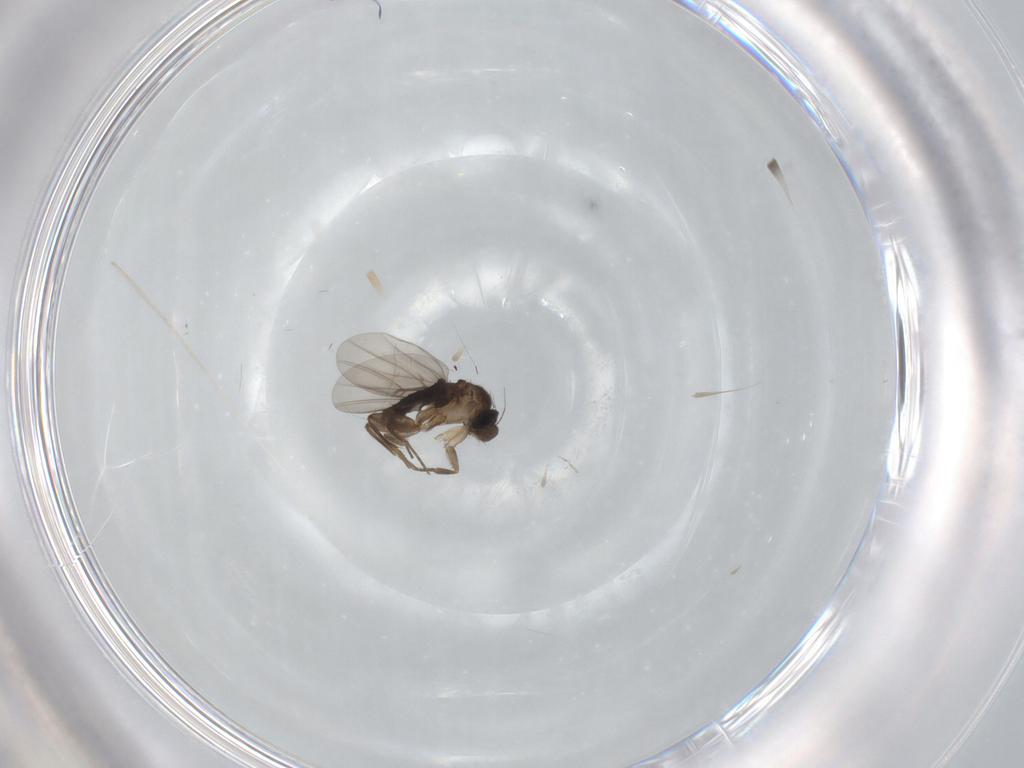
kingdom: Animalia
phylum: Arthropoda
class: Insecta
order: Diptera
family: Phoridae
